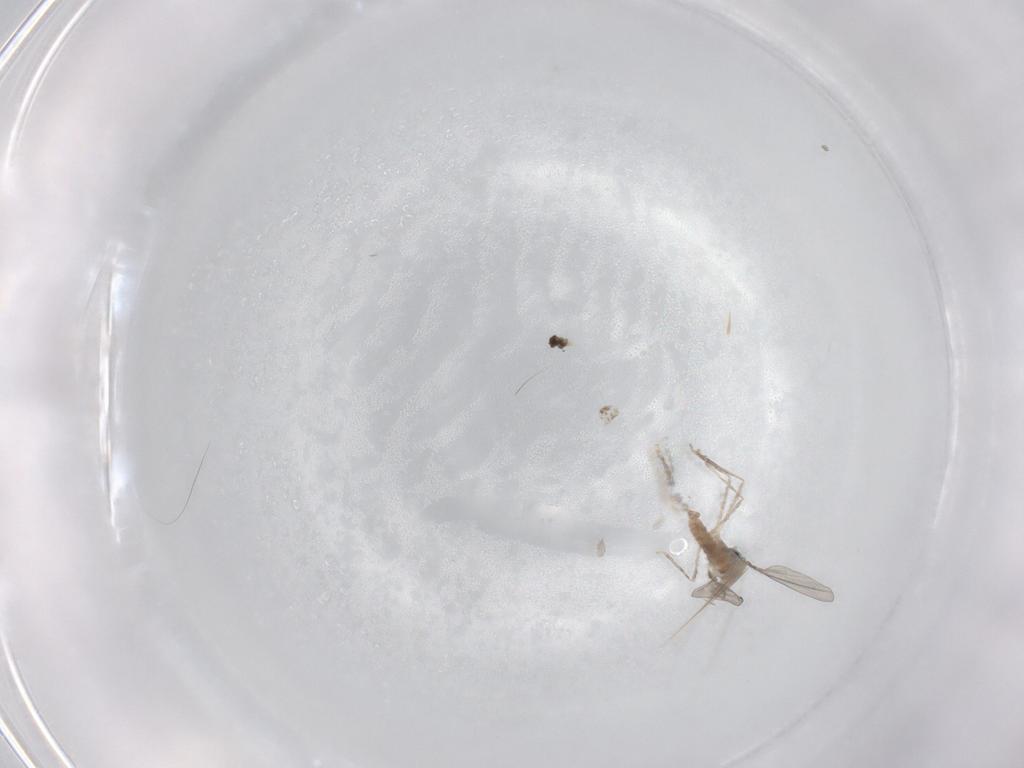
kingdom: Animalia
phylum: Arthropoda
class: Insecta
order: Diptera
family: Cecidomyiidae
